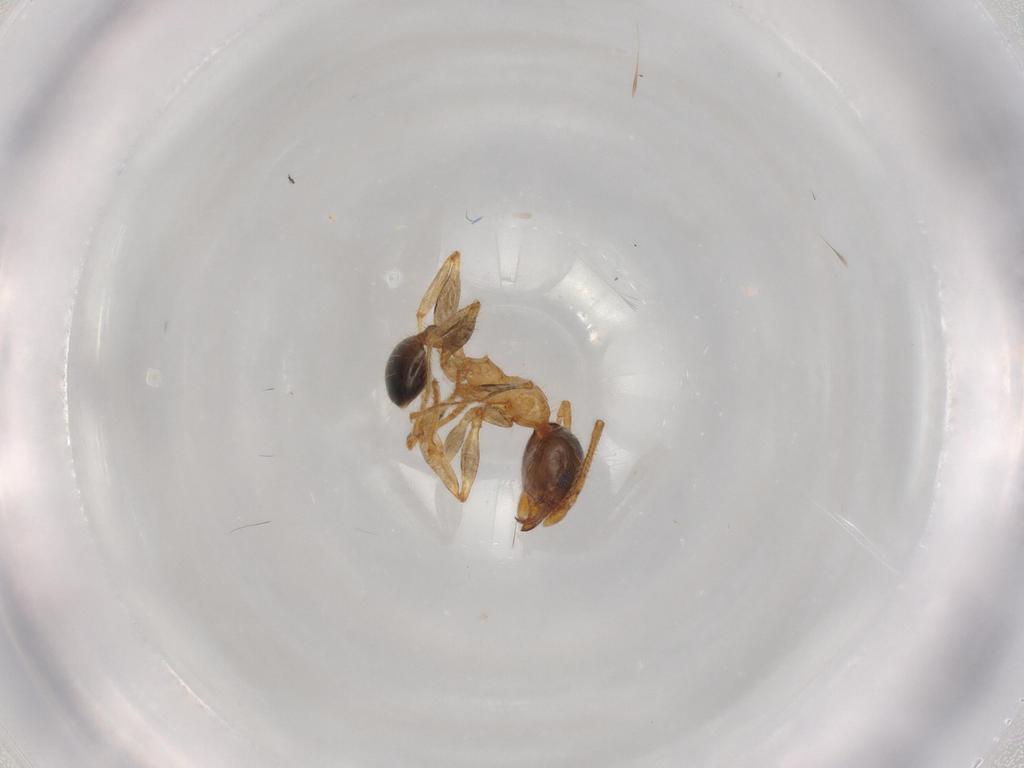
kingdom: Animalia
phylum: Arthropoda
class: Insecta
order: Hymenoptera
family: Formicidae
